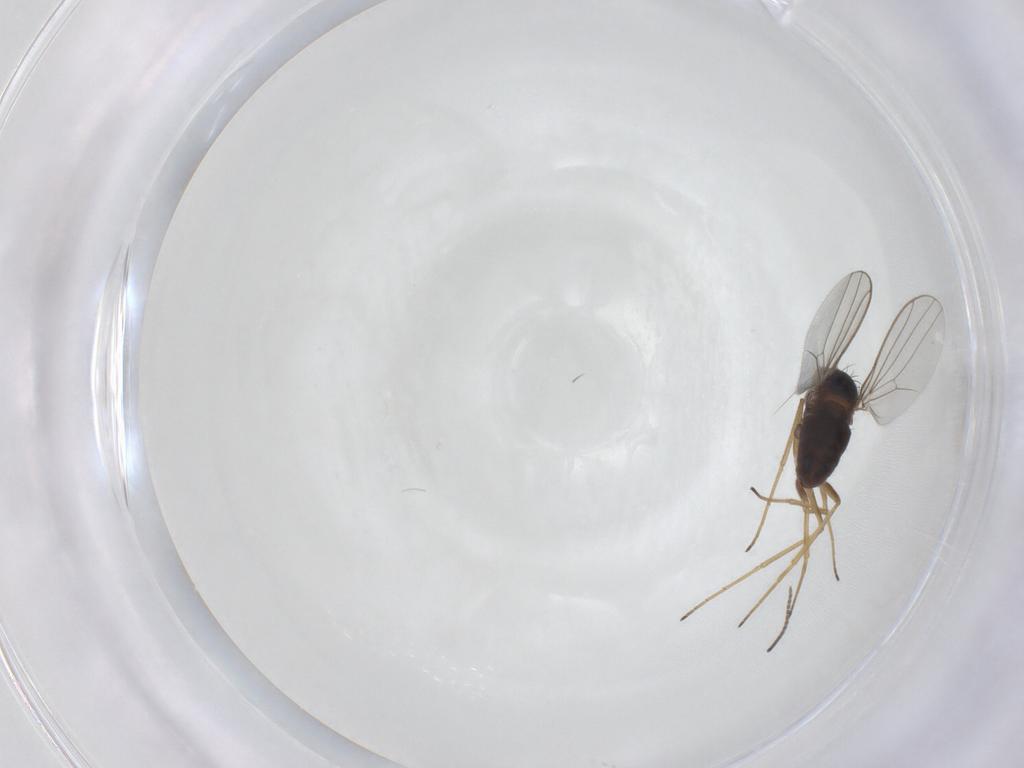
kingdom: Animalia
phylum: Arthropoda
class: Insecta
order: Diptera
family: Dolichopodidae
